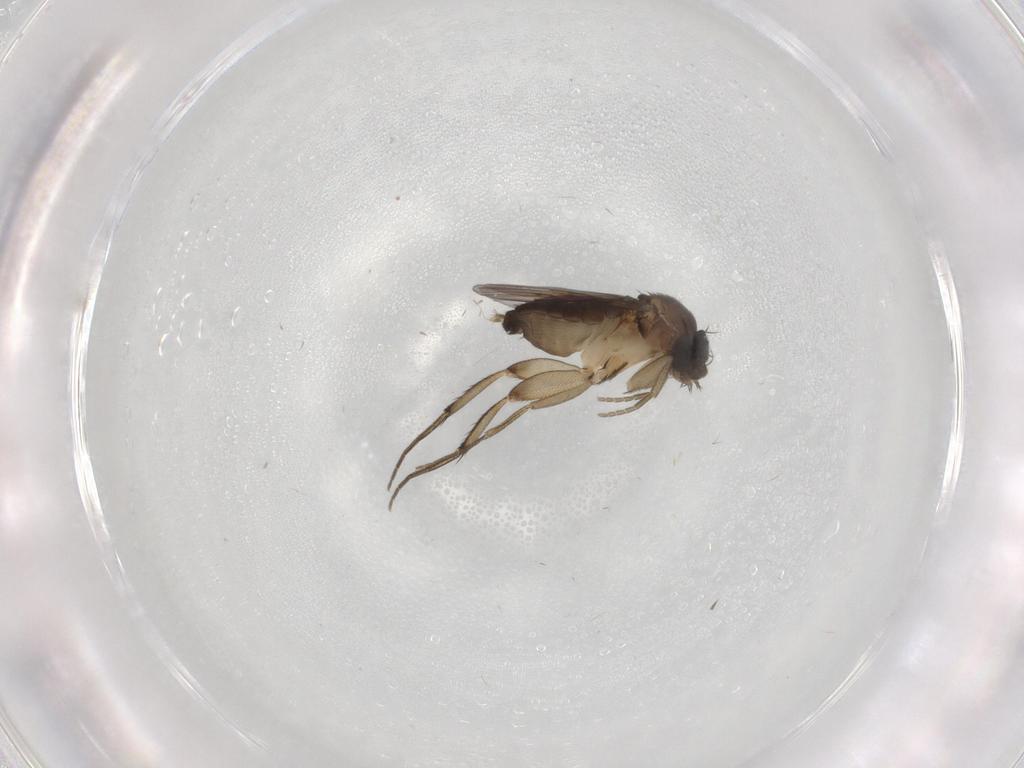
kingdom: Animalia
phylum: Arthropoda
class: Insecta
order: Diptera
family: Phoridae
